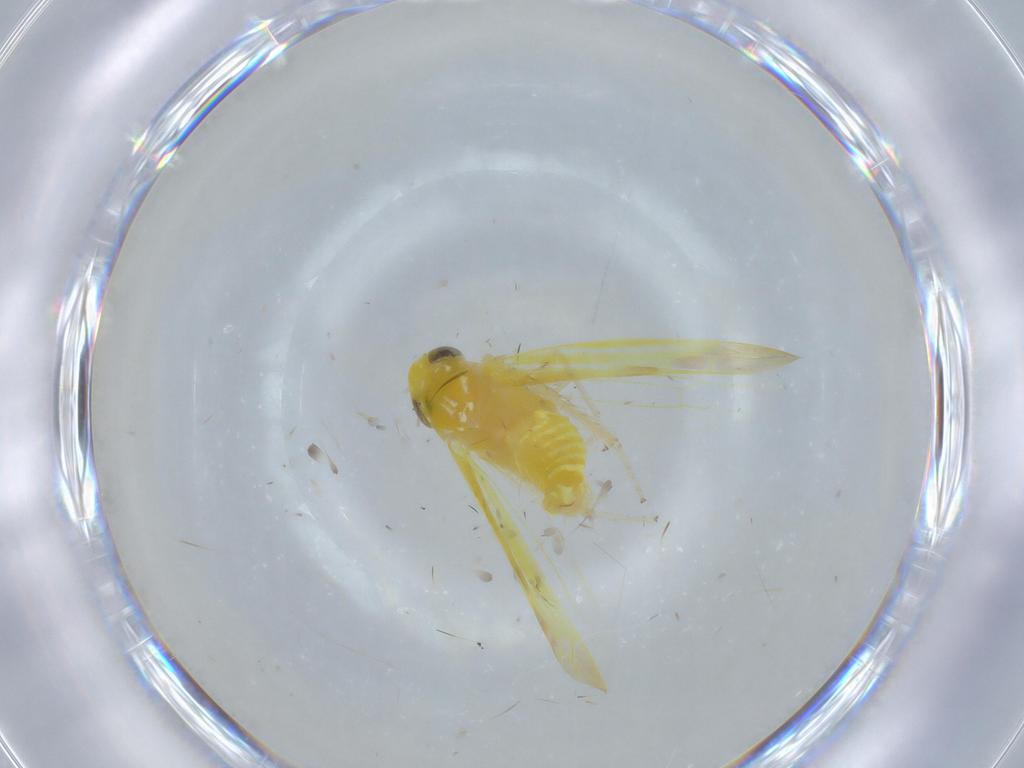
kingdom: Animalia
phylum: Arthropoda
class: Insecta
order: Hemiptera
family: Cicadellidae
